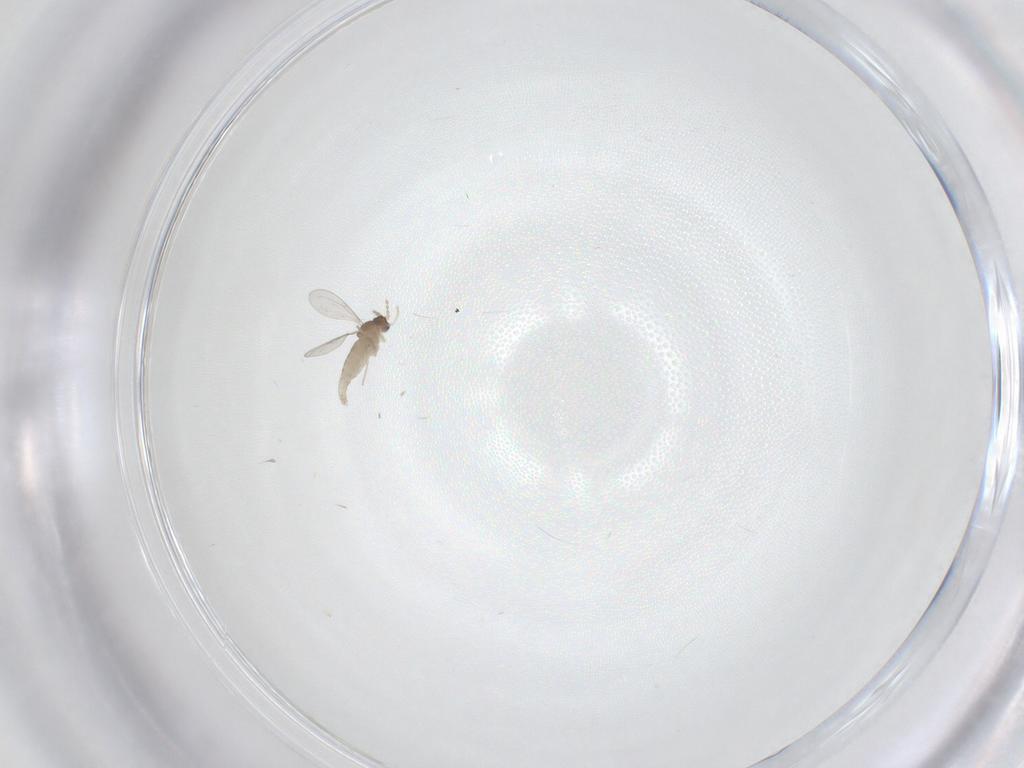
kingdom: Animalia
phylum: Arthropoda
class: Insecta
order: Diptera
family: Cecidomyiidae
